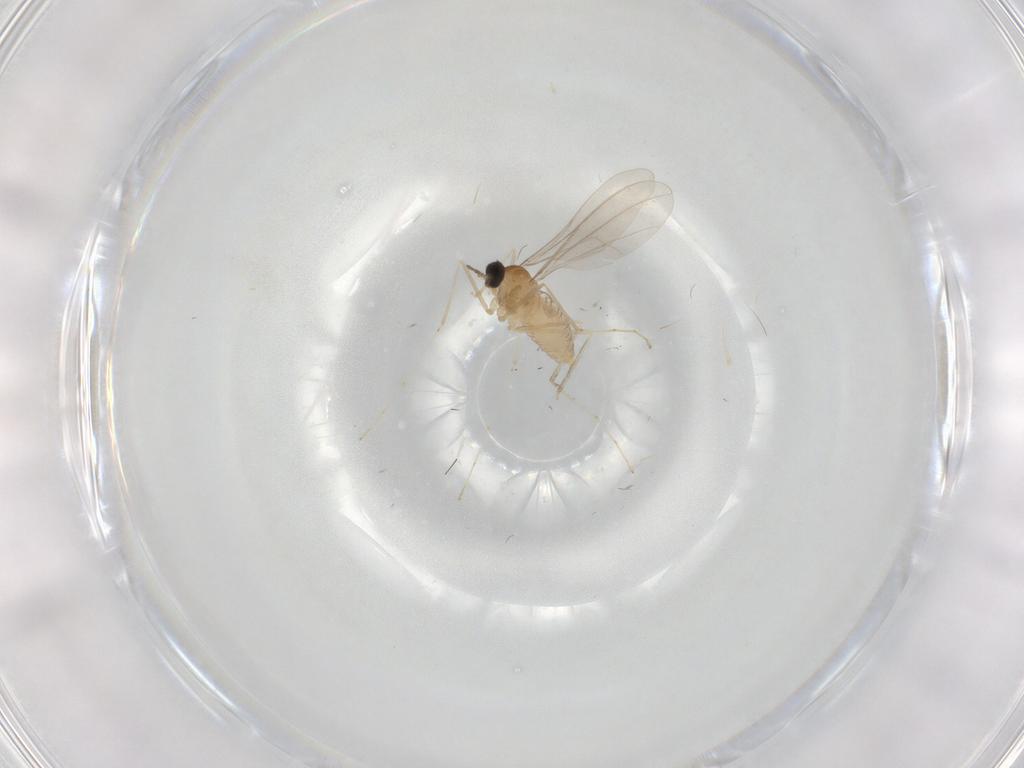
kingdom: Animalia
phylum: Arthropoda
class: Insecta
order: Diptera
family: Cecidomyiidae
